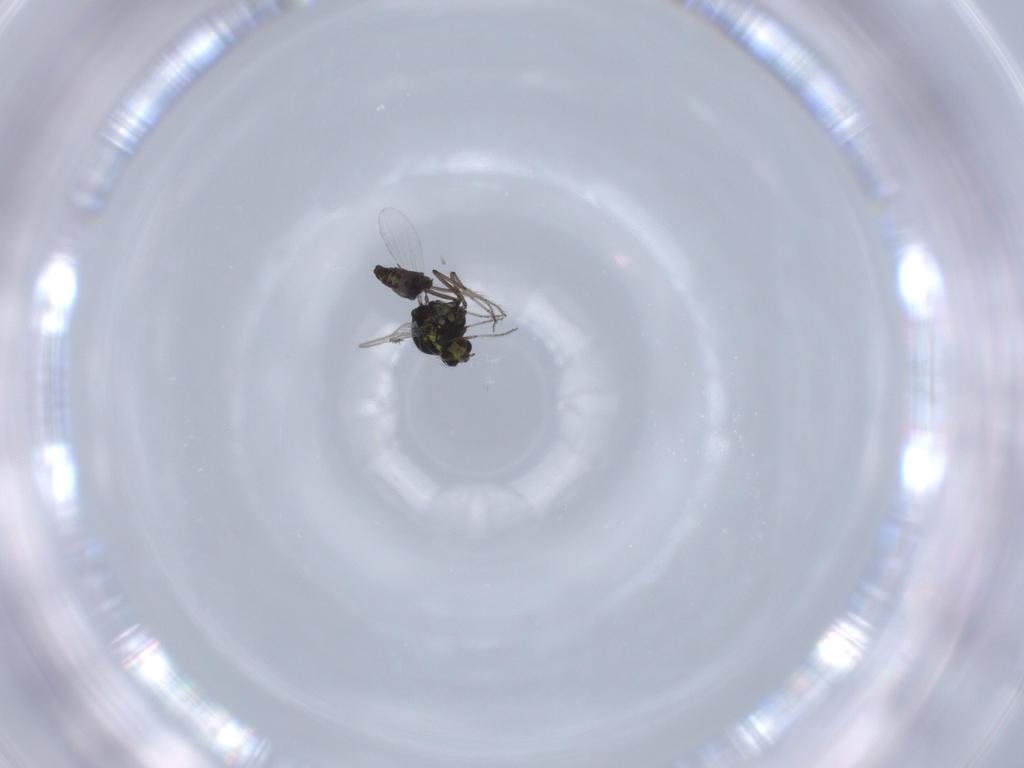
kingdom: Animalia
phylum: Arthropoda
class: Insecta
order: Diptera
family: Ceratopogonidae
